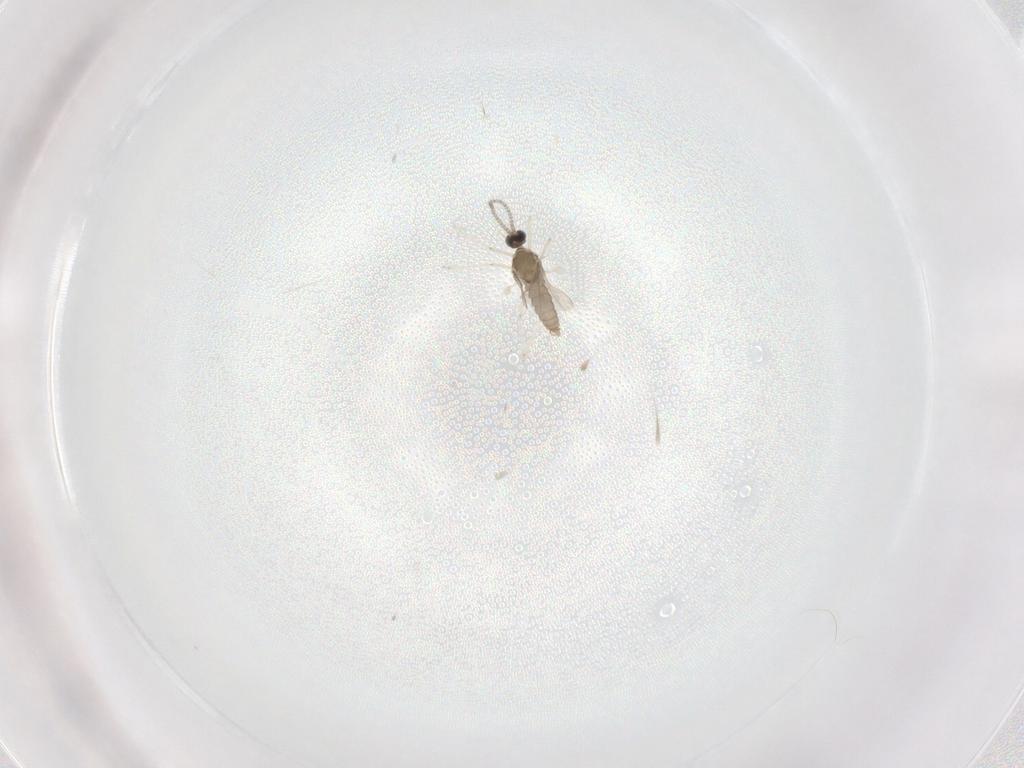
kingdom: Animalia
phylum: Arthropoda
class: Insecta
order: Diptera
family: Cecidomyiidae
